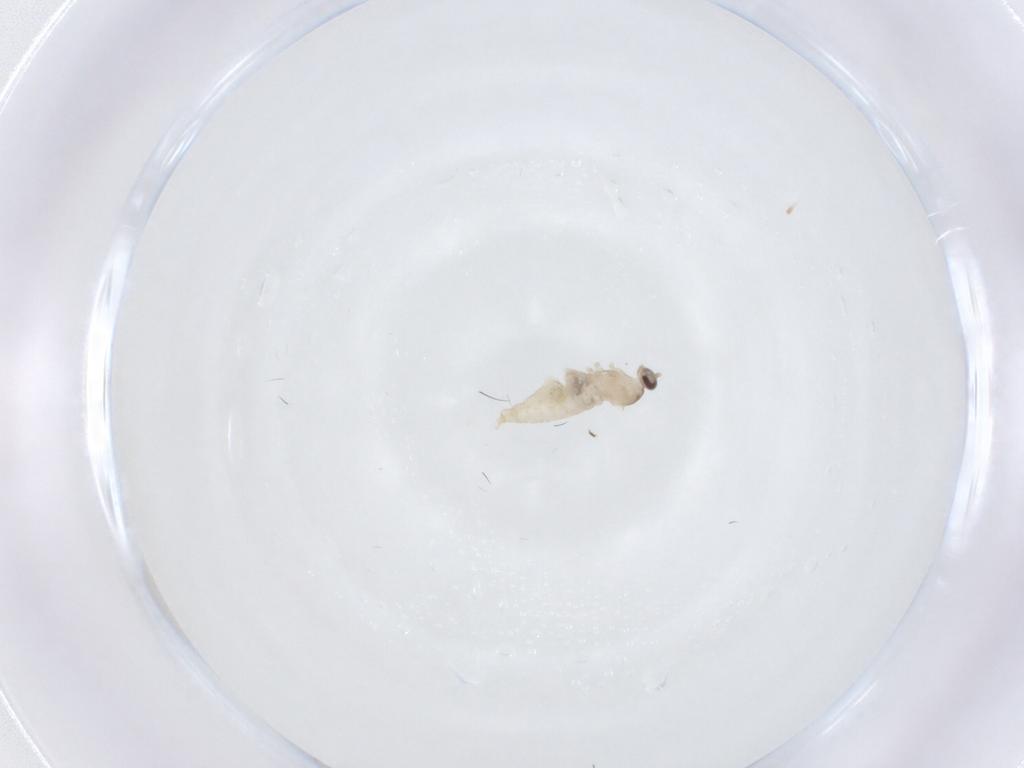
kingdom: Animalia
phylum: Arthropoda
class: Insecta
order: Diptera
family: Cecidomyiidae
